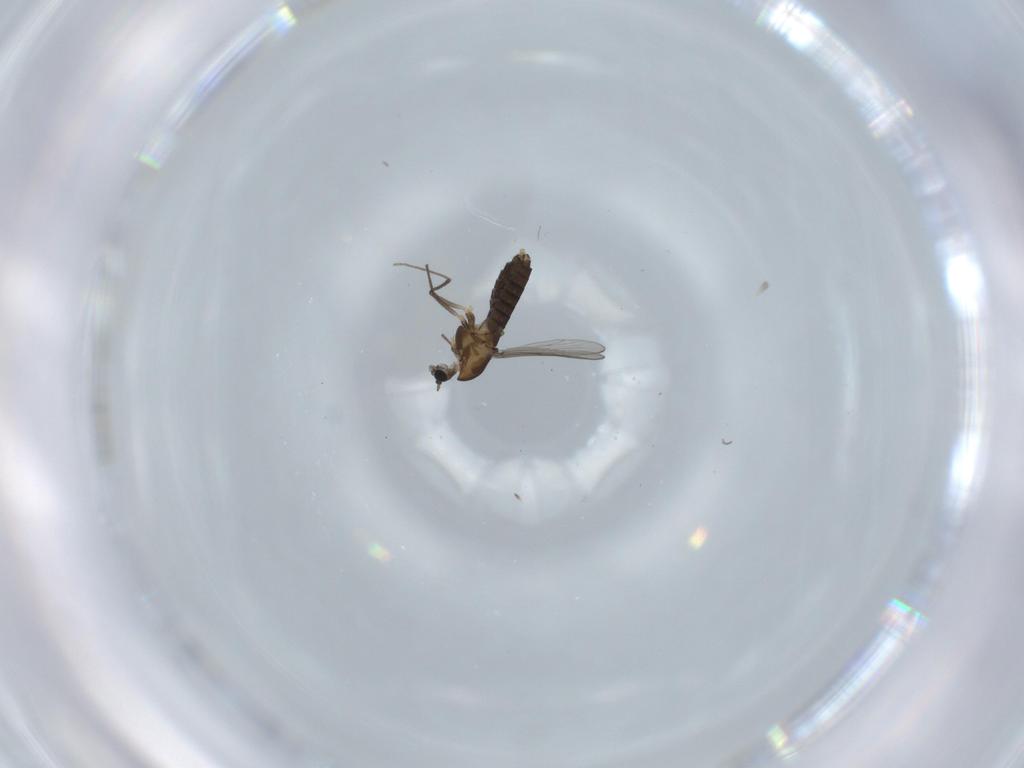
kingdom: Animalia
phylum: Arthropoda
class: Insecta
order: Diptera
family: Chironomidae
